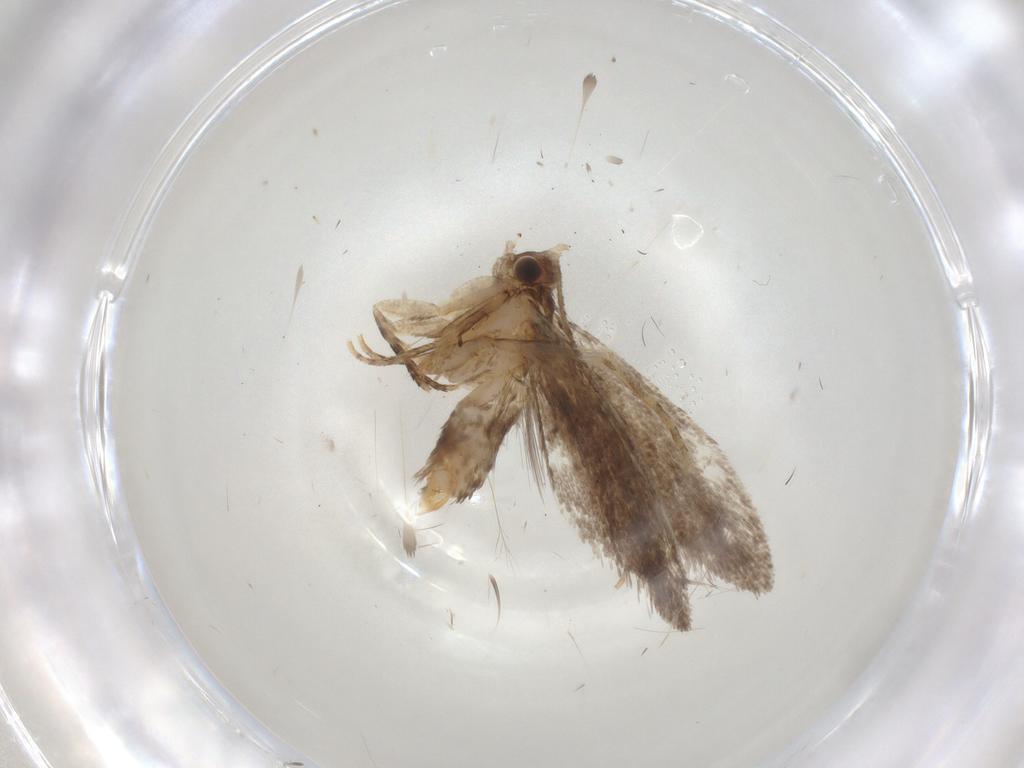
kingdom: Animalia
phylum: Arthropoda
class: Insecta
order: Lepidoptera
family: Dryadaulidae
